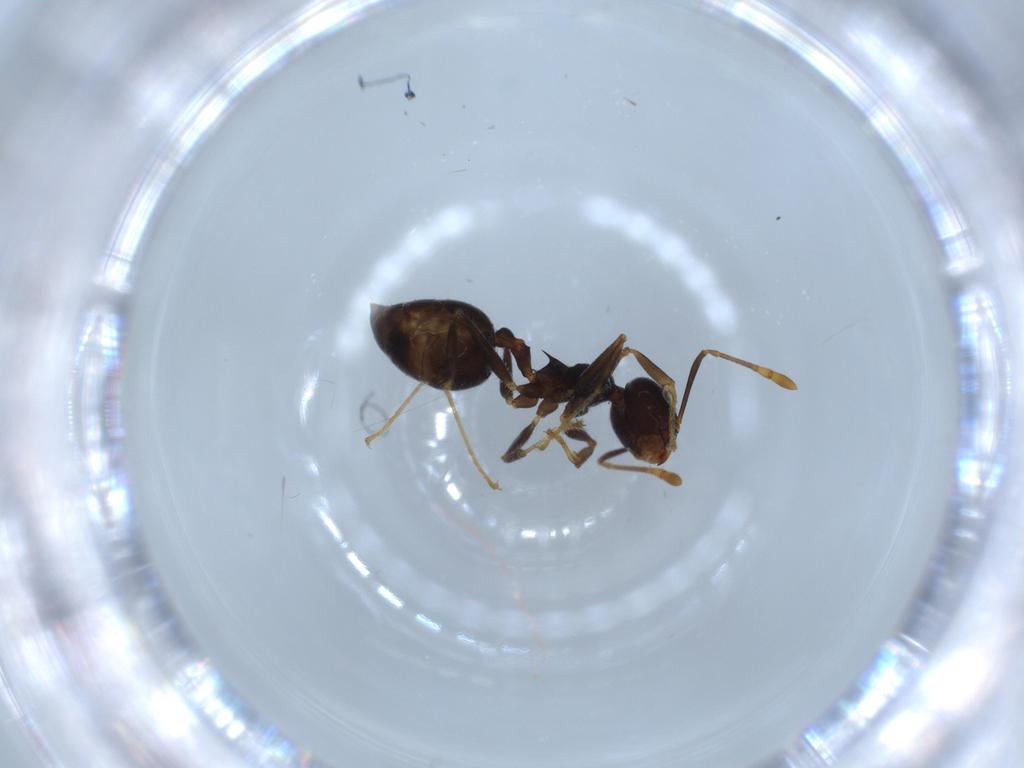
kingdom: Animalia
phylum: Arthropoda
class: Insecta
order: Hymenoptera
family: Formicidae
